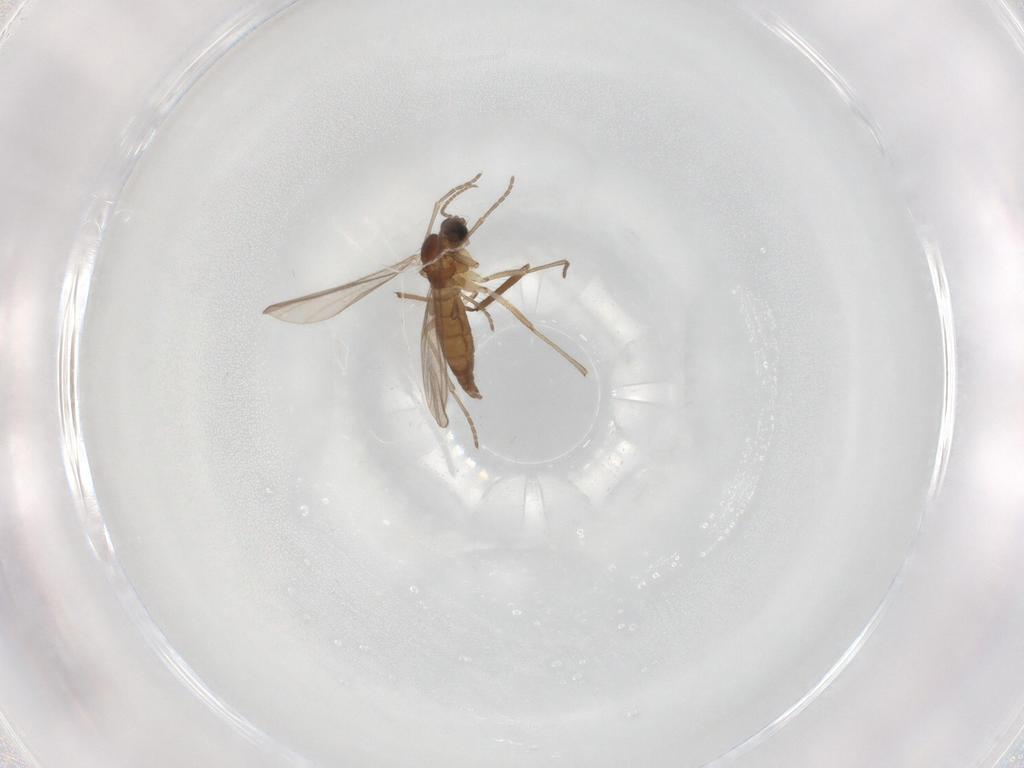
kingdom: Animalia
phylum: Arthropoda
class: Insecta
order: Diptera
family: Sciaridae
